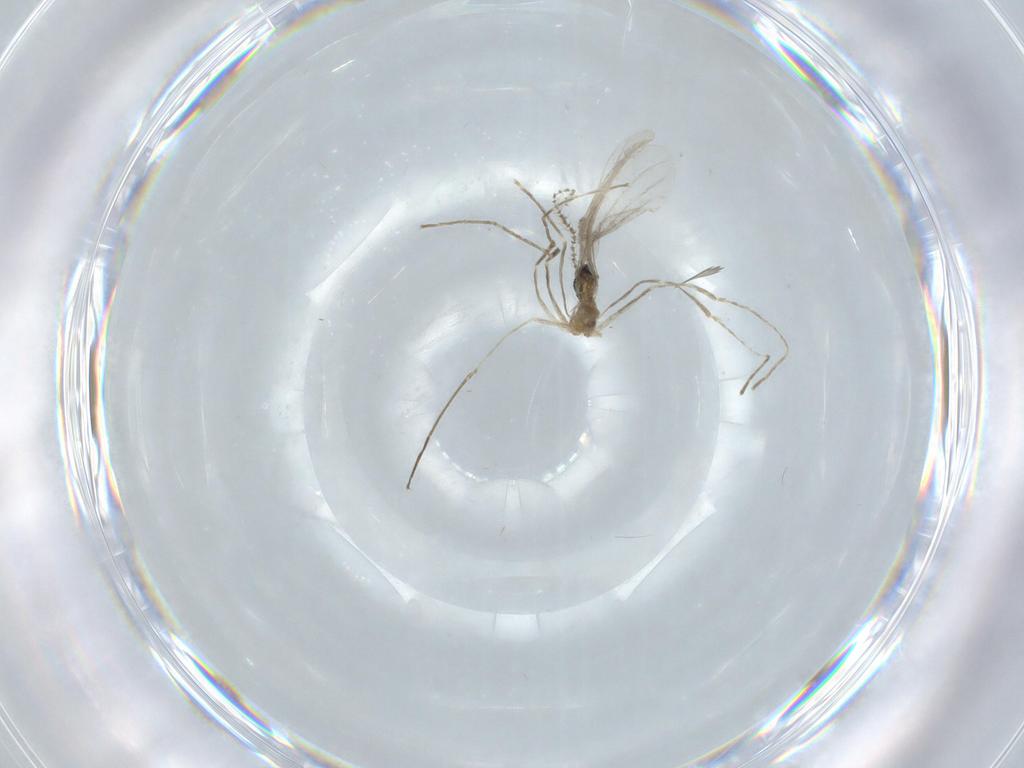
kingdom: Animalia
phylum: Arthropoda
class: Insecta
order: Diptera
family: Cecidomyiidae
